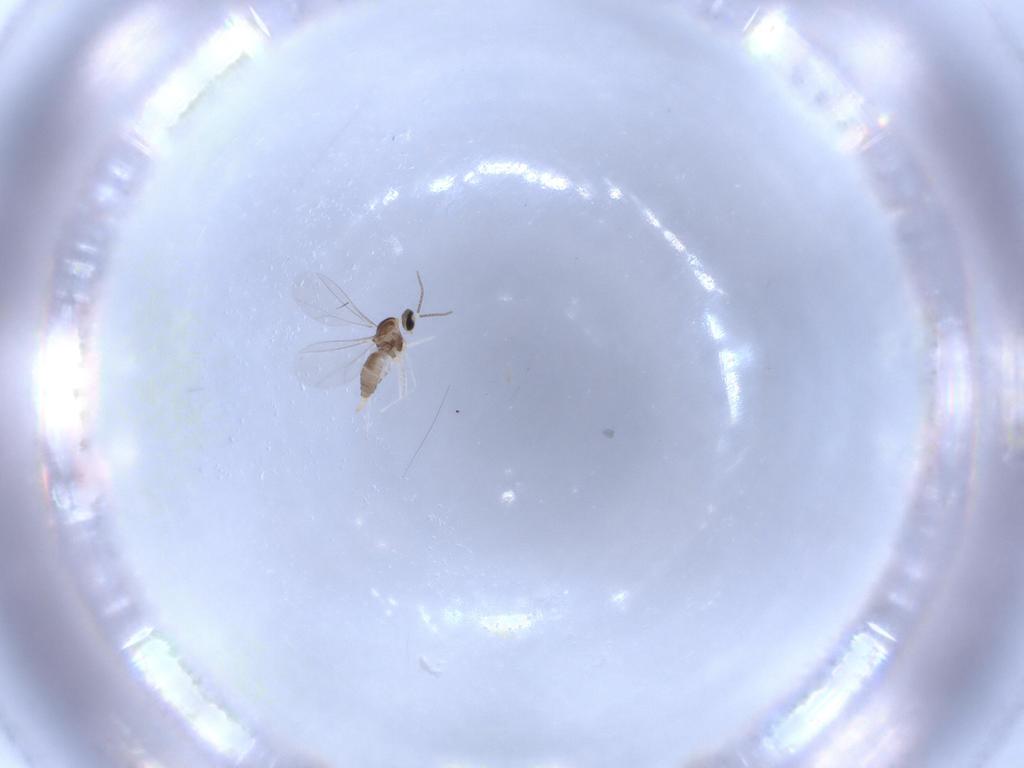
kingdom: Animalia
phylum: Arthropoda
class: Insecta
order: Diptera
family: Cecidomyiidae
